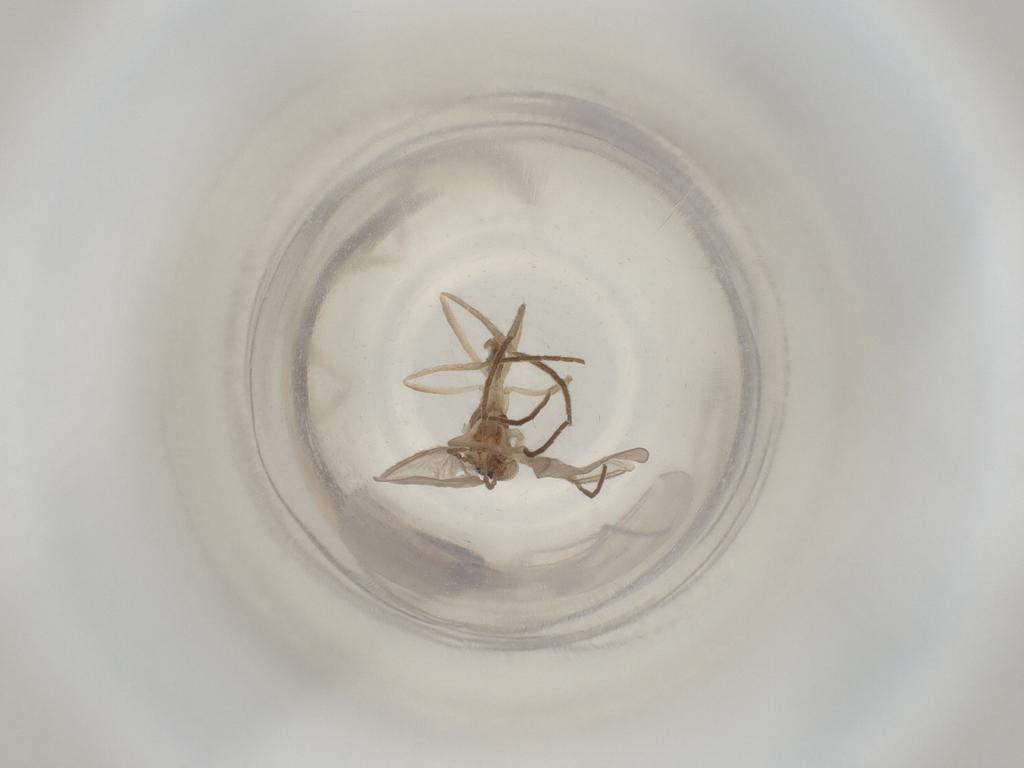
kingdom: Animalia
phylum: Arthropoda
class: Insecta
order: Diptera
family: Cecidomyiidae
